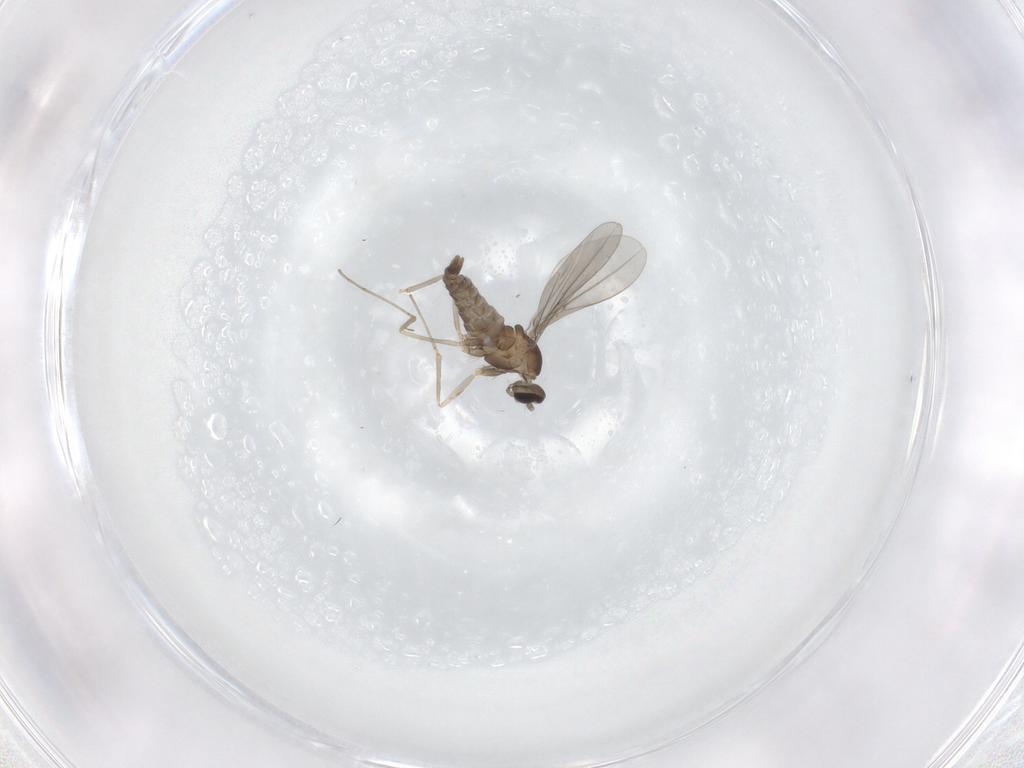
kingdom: Animalia
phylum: Arthropoda
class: Insecta
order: Diptera
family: Cecidomyiidae
